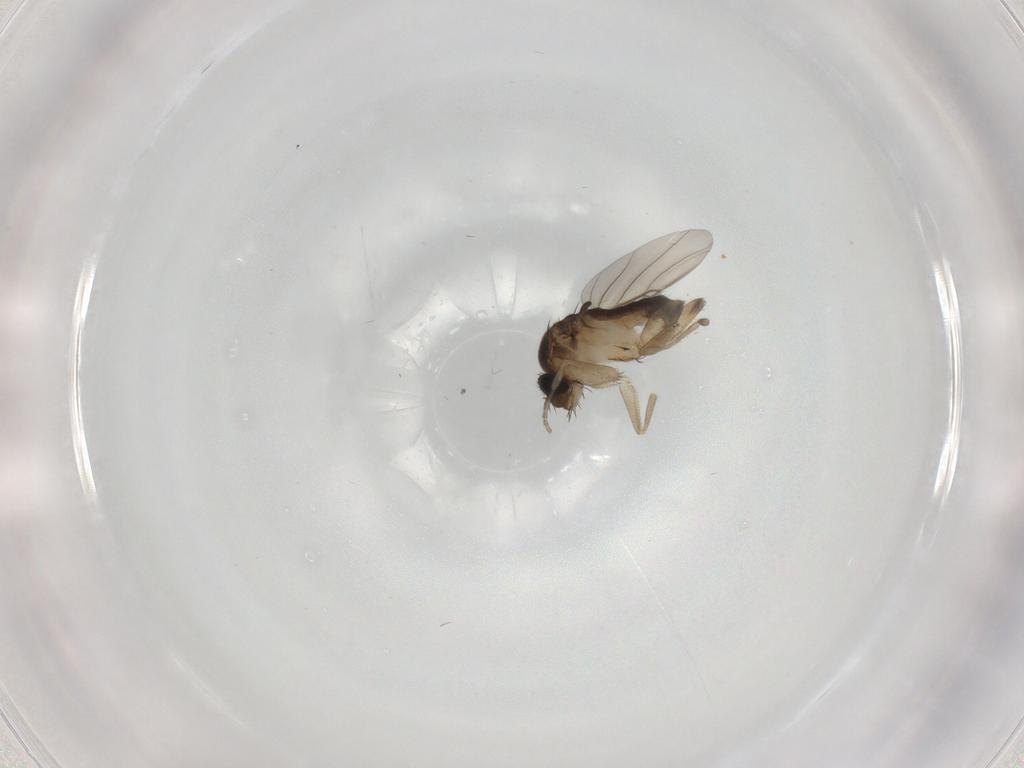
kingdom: Animalia
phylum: Arthropoda
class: Insecta
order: Diptera
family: Phoridae
